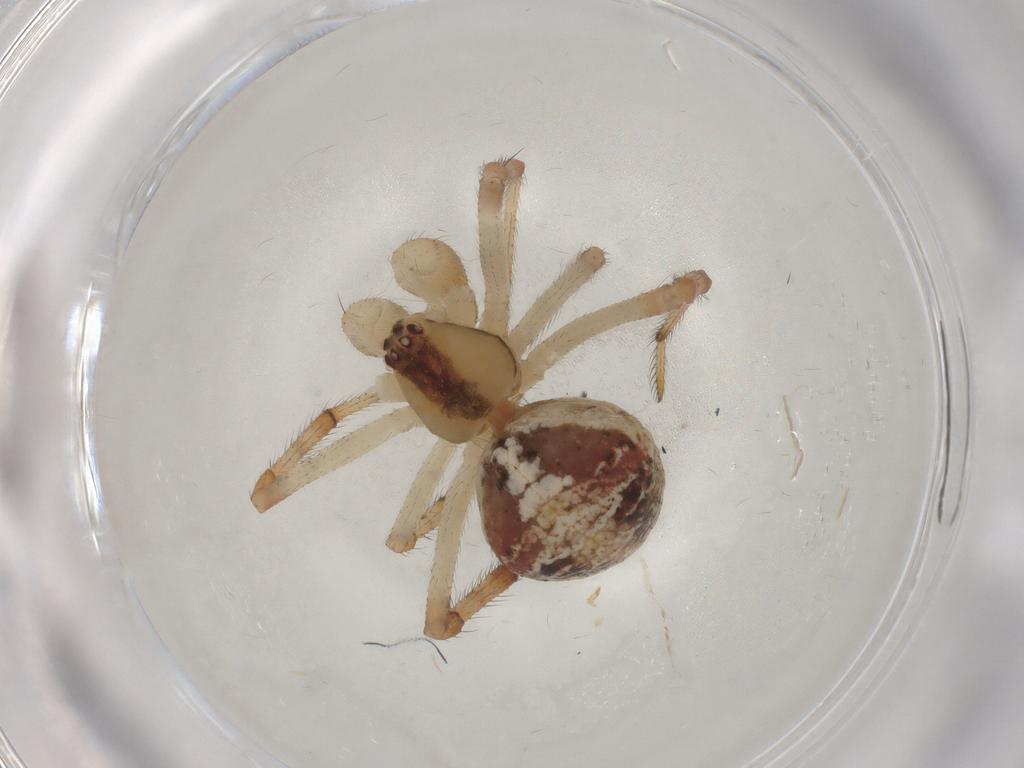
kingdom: Animalia
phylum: Arthropoda
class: Arachnida
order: Araneae
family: Theridiidae
